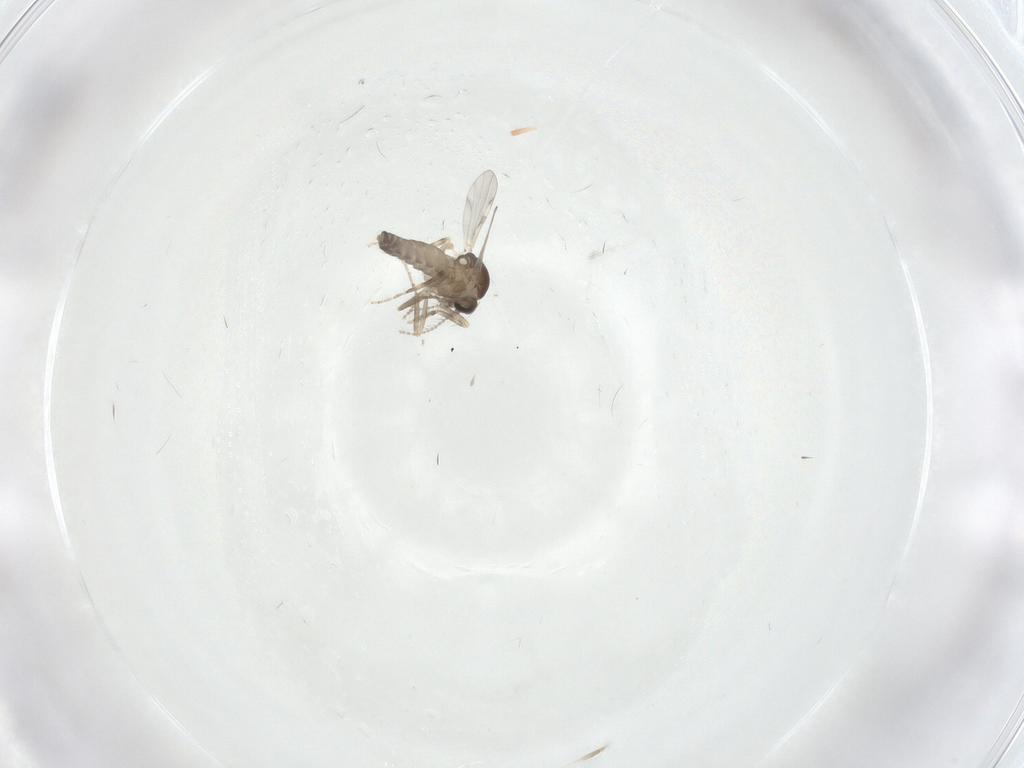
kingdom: Animalia
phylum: Arthropoda
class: Insecta
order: Diptera
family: Ceratopogonidae
